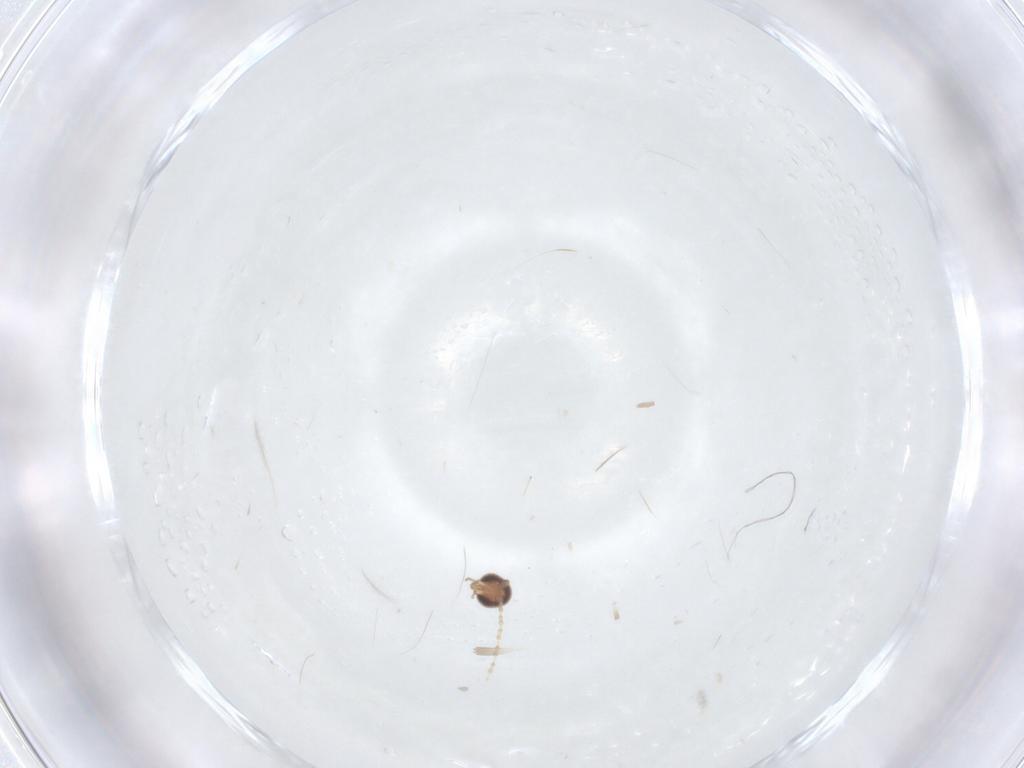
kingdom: Animalia
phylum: Arthropoda
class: Insecta
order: Diptera
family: Cecidomyiidae
